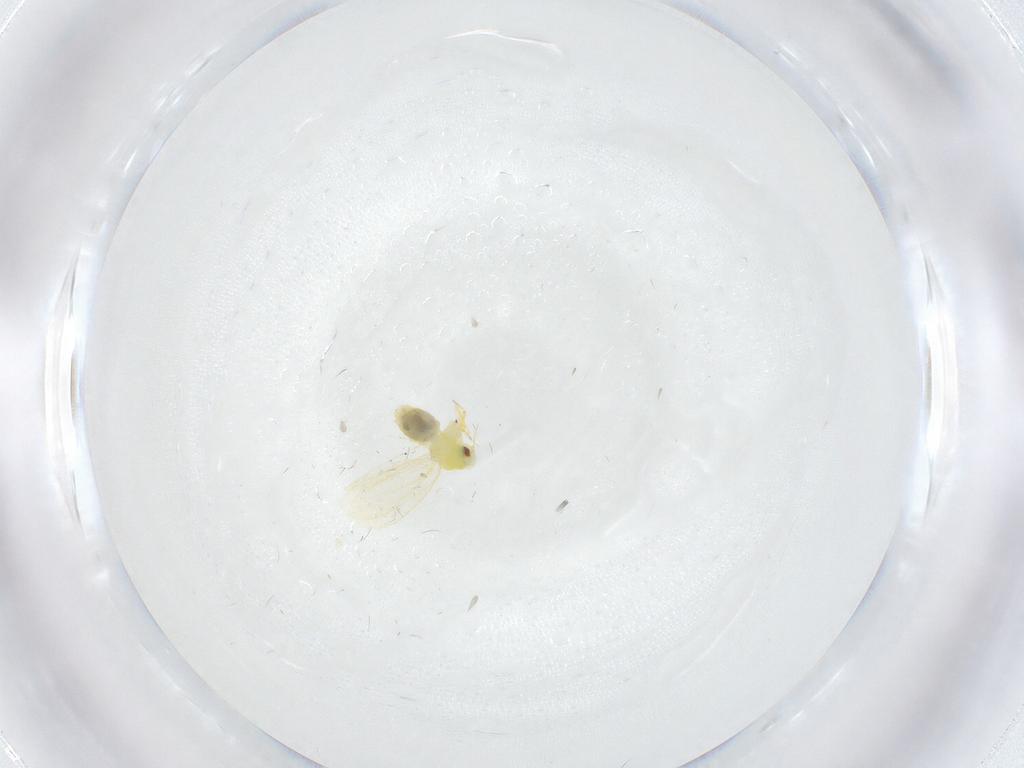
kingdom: Animalia
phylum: Arthropoda
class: Insecta
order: Hemiptera
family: Aleyrodidae
